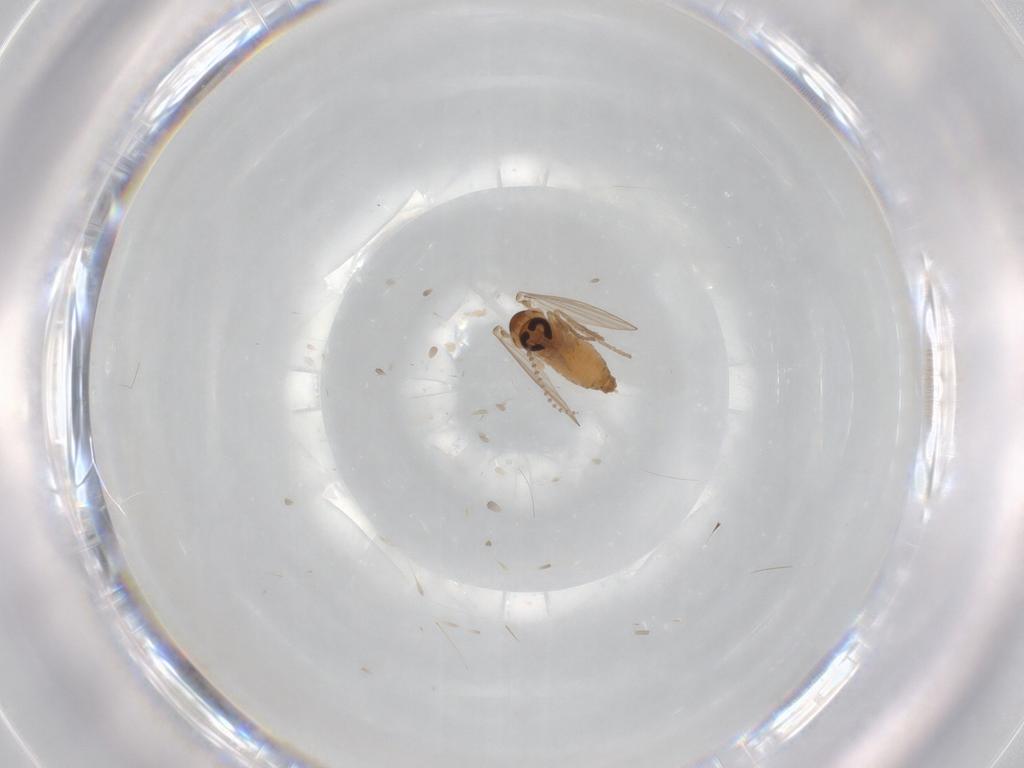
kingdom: Animalia
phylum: Arthropoda
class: Insecta
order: Diptera
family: Psychodidae
